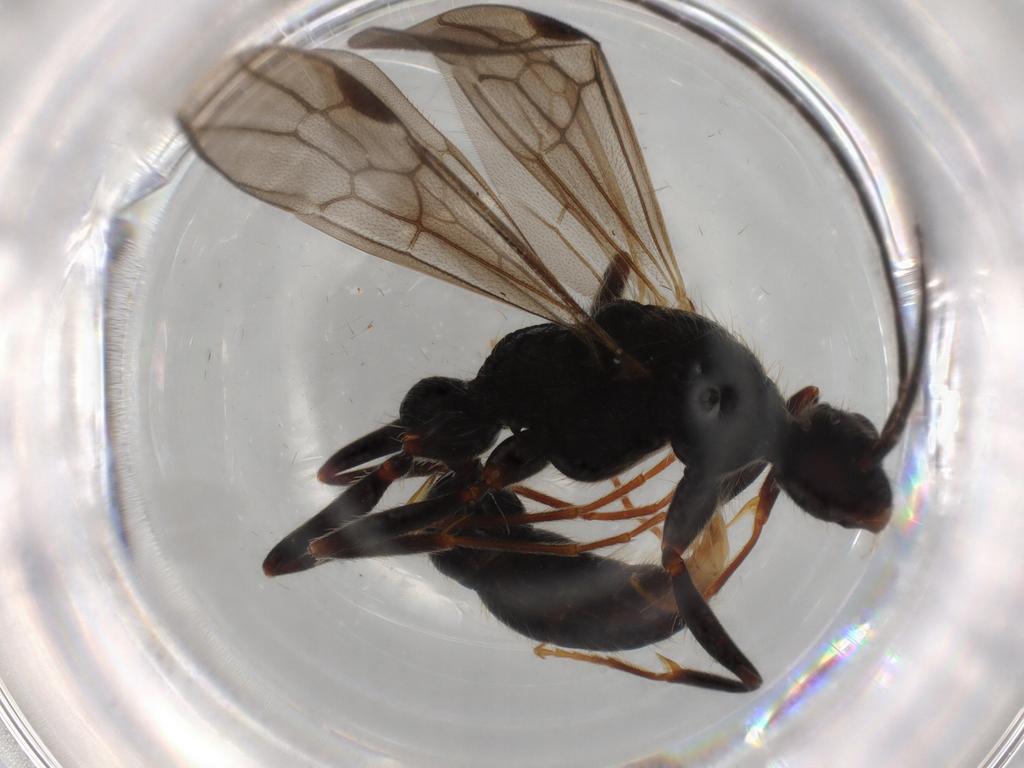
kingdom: Animalia
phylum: Arthropoda
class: Insecta
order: Hymenoptera
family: Formicidae
